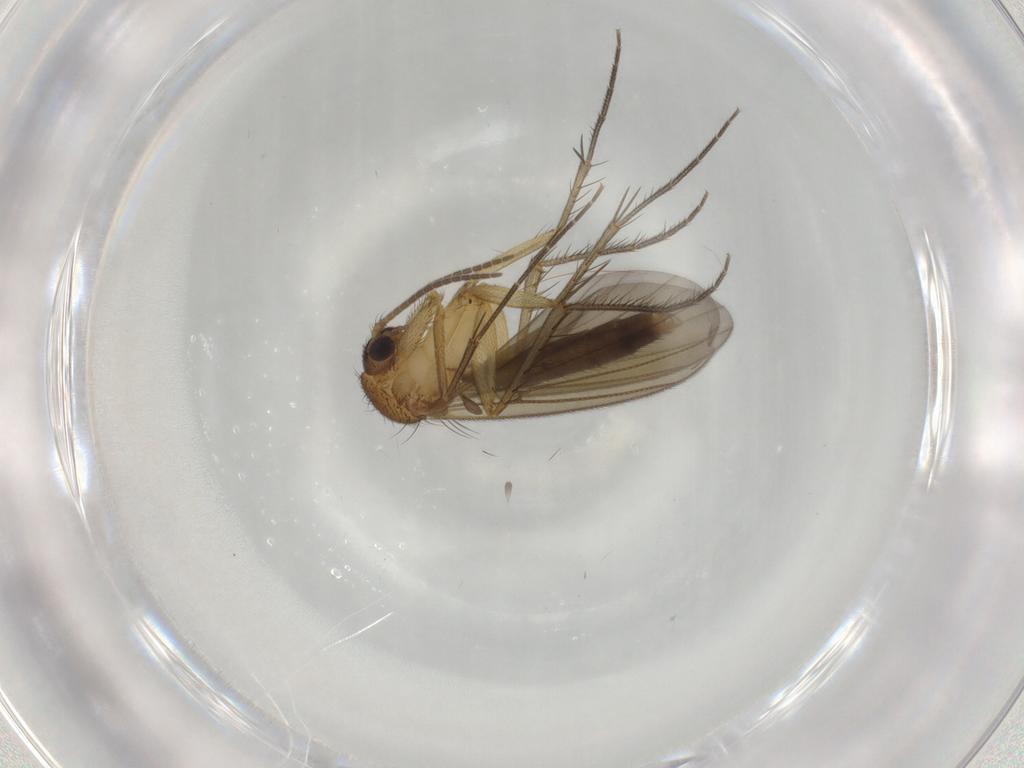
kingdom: Animalia
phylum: Arthropoda
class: Insecta
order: Diptera
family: Mycetophilidae
